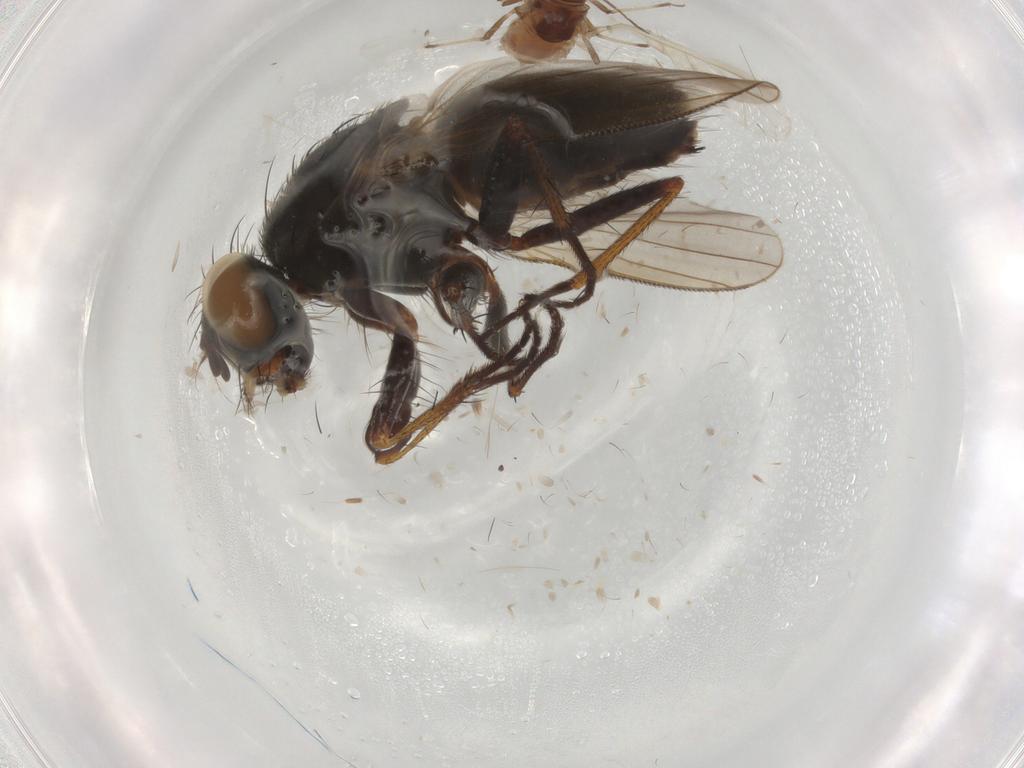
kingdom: Animalia
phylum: Arthropoda
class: Insecta
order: Diptera
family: Muscidae
